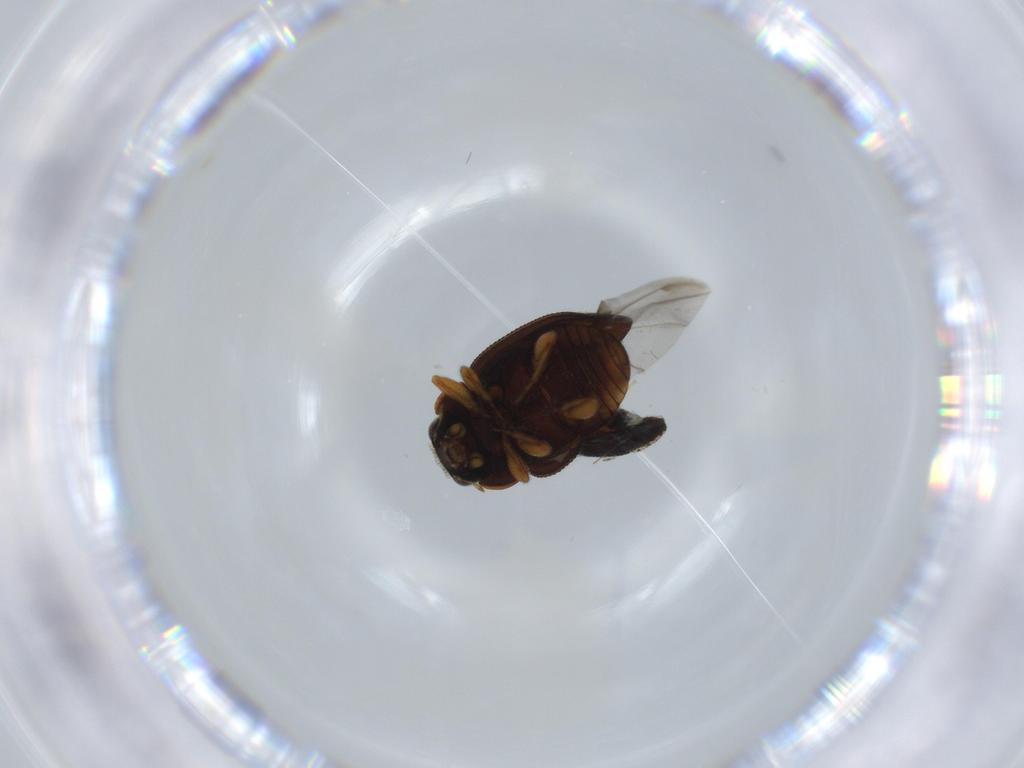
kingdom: Animalia
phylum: Arthropoda
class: Insecta
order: Coleoptera
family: Coccinellidae
